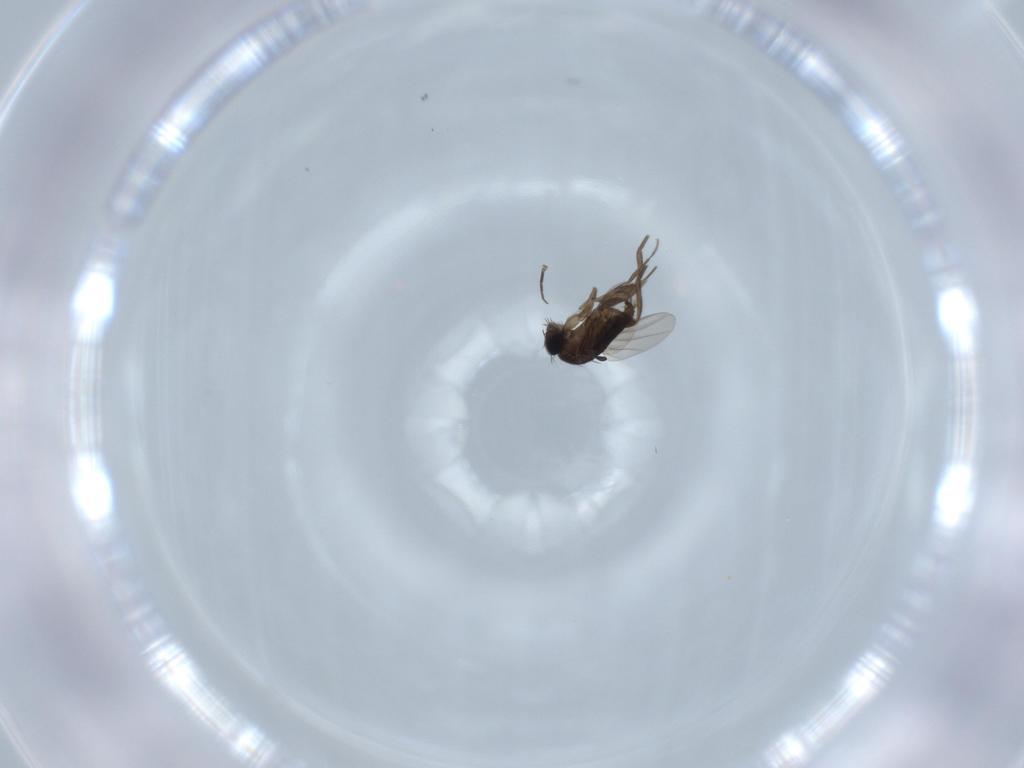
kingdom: Animalia
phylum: Arthropoda
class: Insecta
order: Diptera
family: Phoridae
